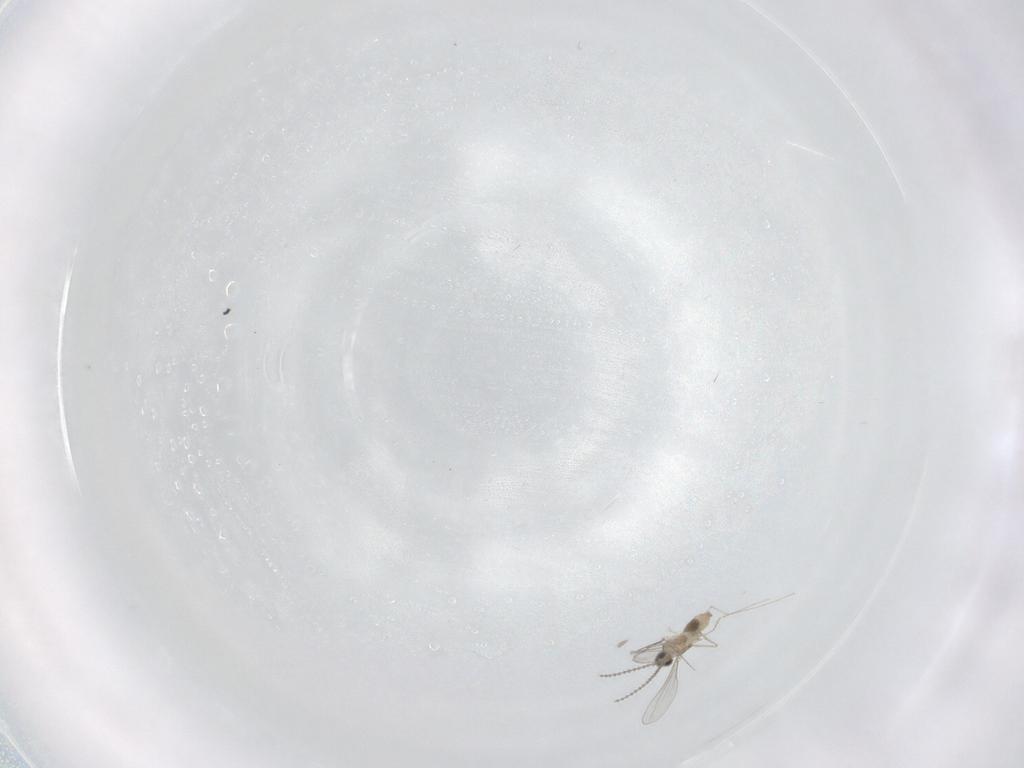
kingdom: Animalia
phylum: Arthropoda
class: Insecta
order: Diptera
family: Cecidomyiidae
